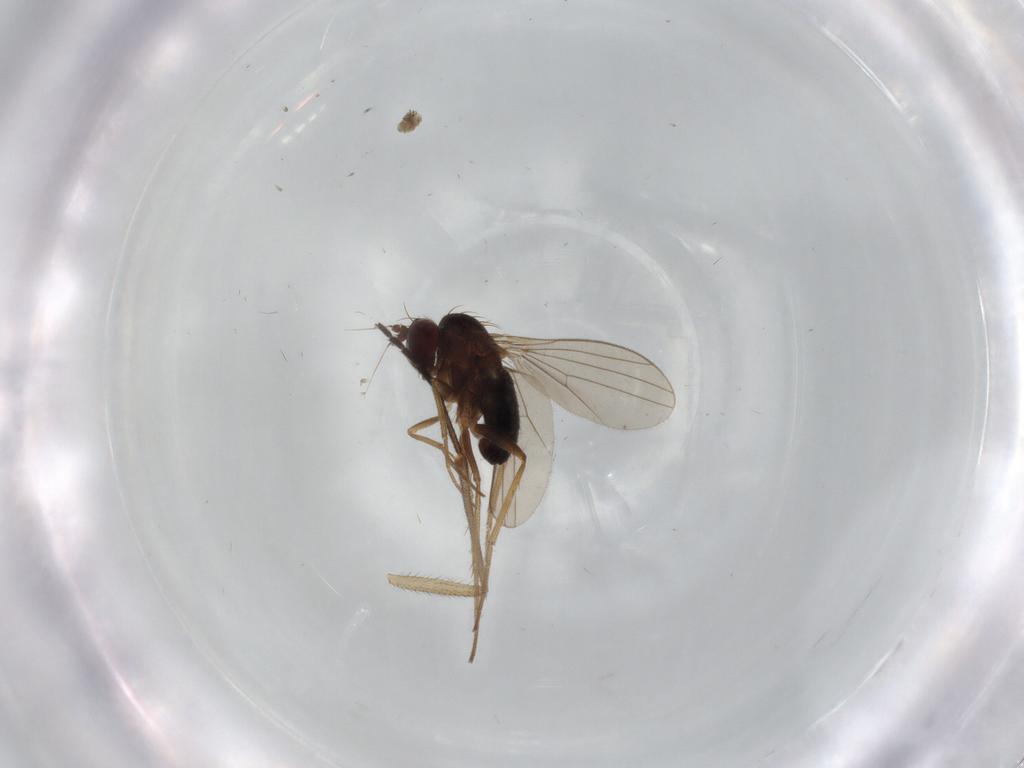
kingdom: Animalia
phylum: Arthropoda
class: Insecta
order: Diptera
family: Dolichopodidae
